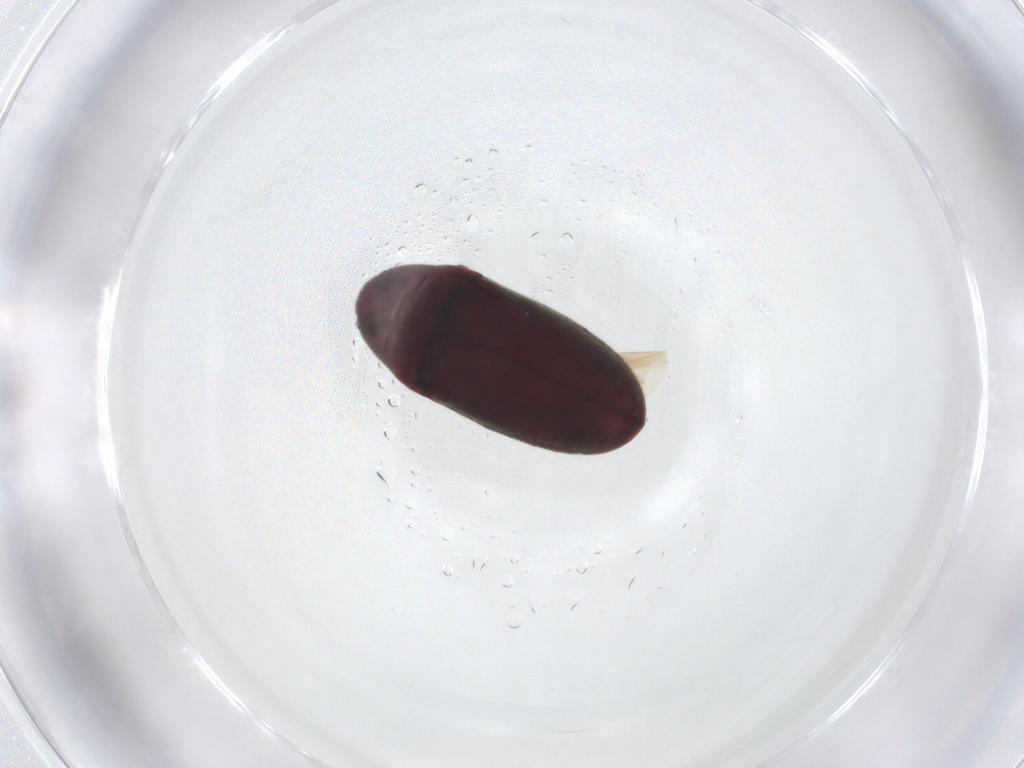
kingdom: Animalia
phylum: Arthropoda
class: Insecta
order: Coleoptera
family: Throscidae
